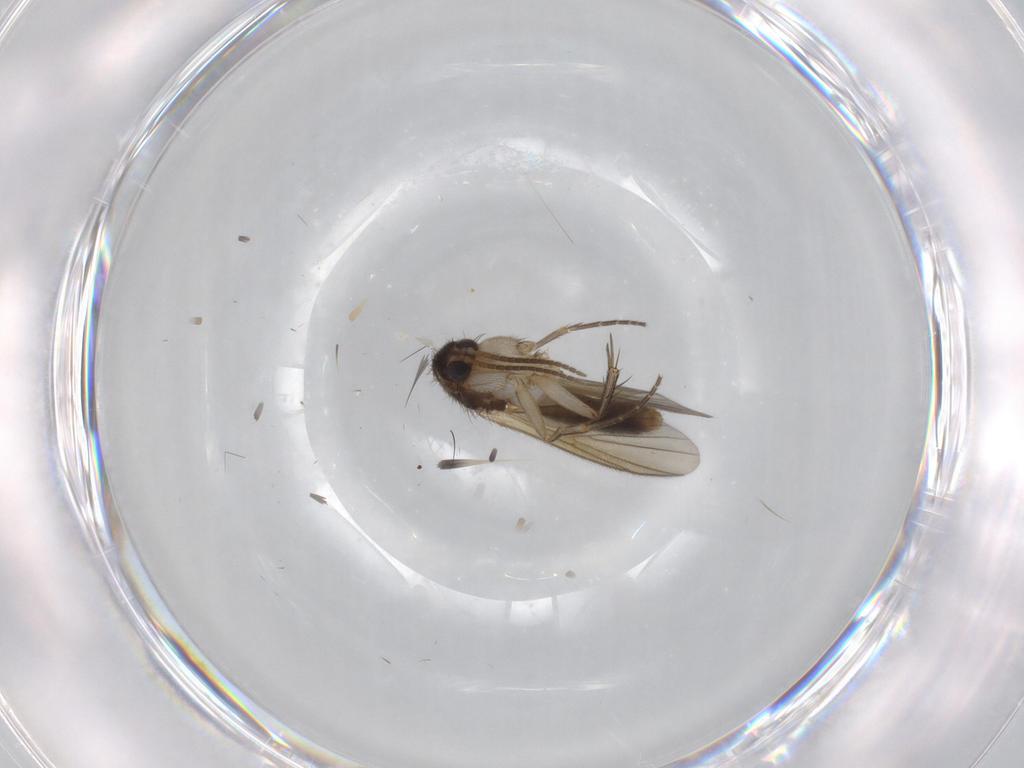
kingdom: Animalia
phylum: Arthropoda
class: Insecta
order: Diptera
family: Mycetophilidae
